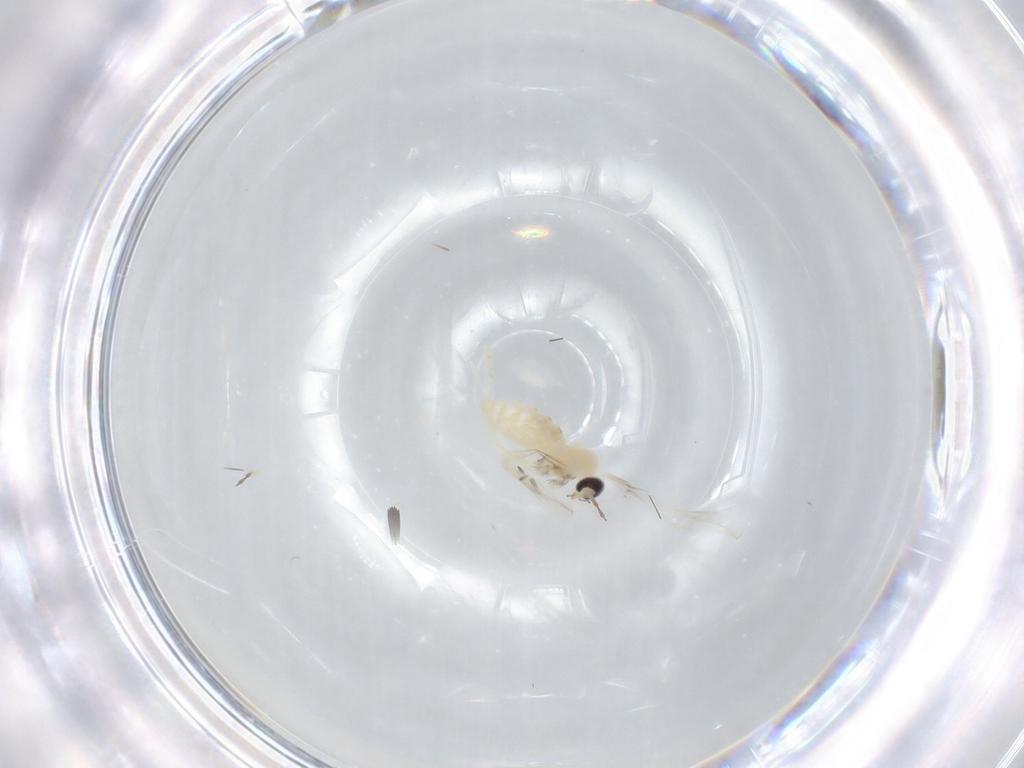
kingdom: Animalia
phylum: Arthropoda
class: Insecta
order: Diptera
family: Cecidomyiidae
